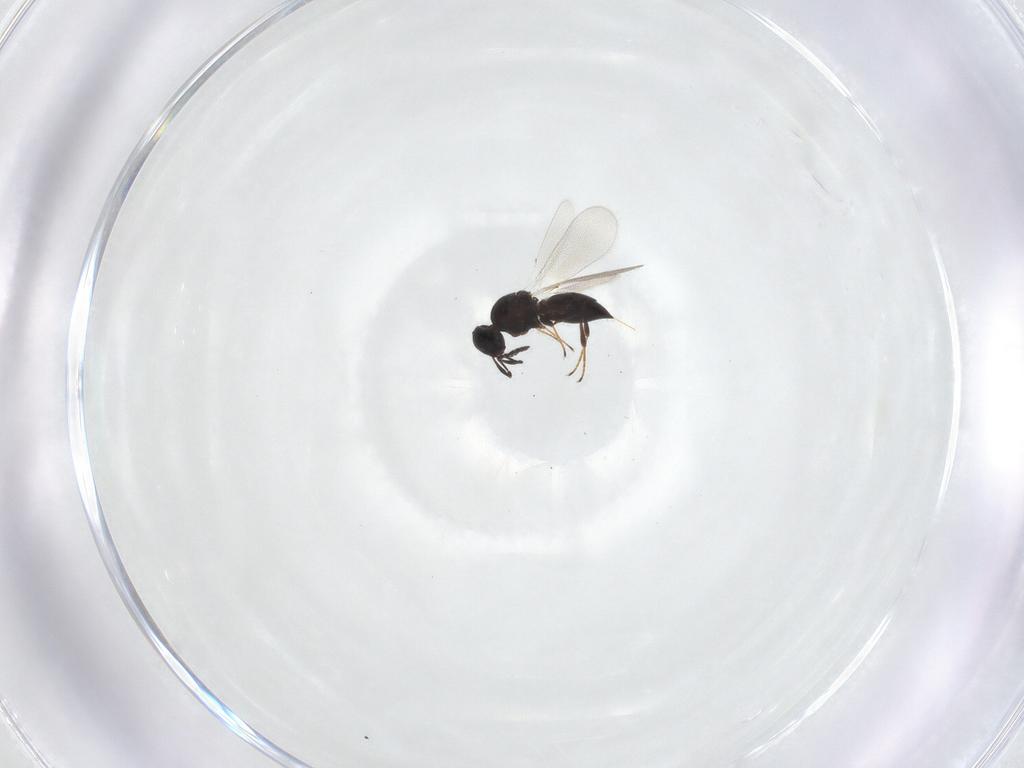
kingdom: Animalia
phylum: Arthropoda
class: Insecta
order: Hymenoptera
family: Platygastridae
